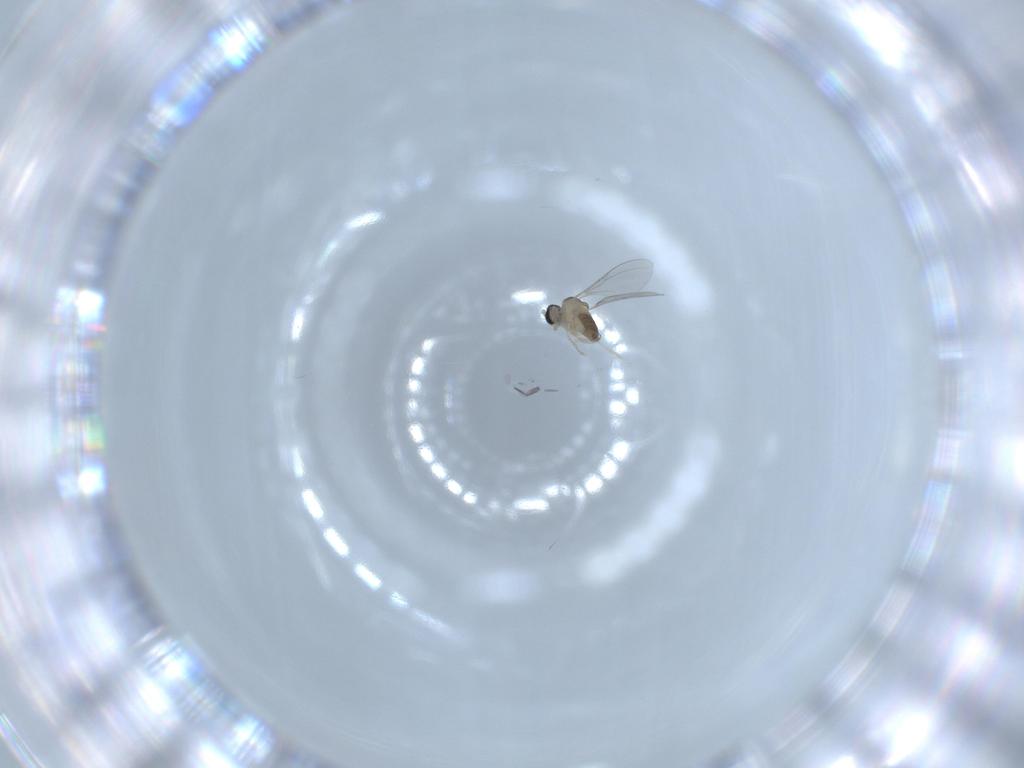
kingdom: Animalia
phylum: Arthropoda
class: Insecta
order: Diptera
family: Cecidomyiidae
